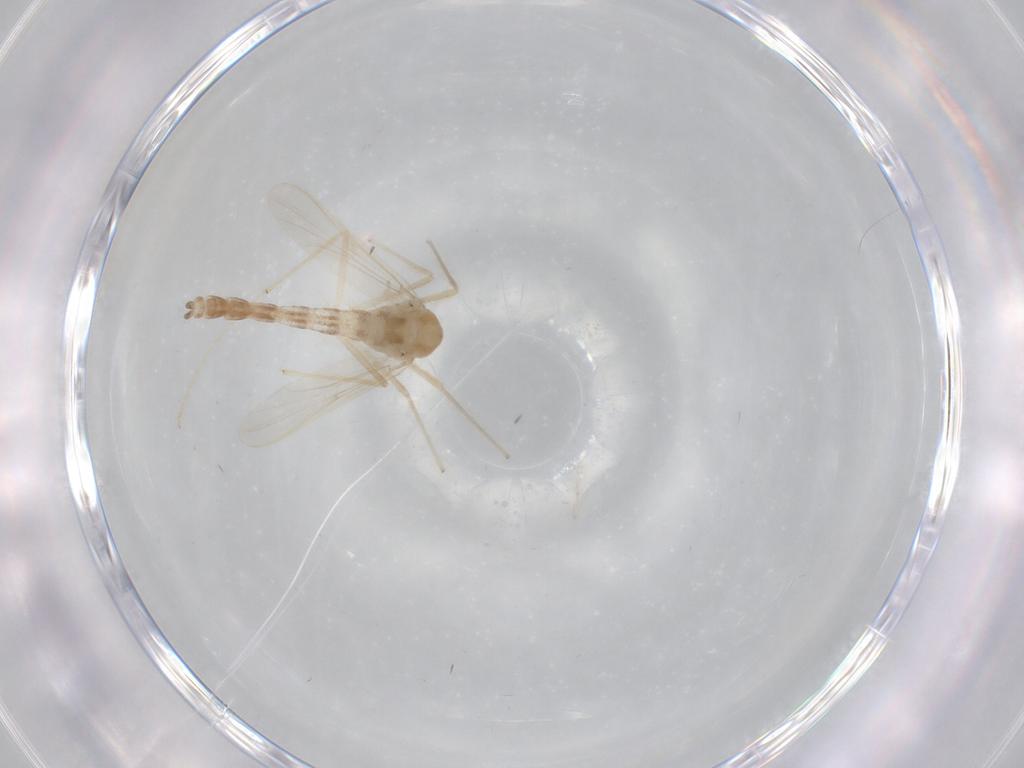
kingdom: Animalia
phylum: Arthropoda
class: Insecta
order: Diptera
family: Chironomidae
